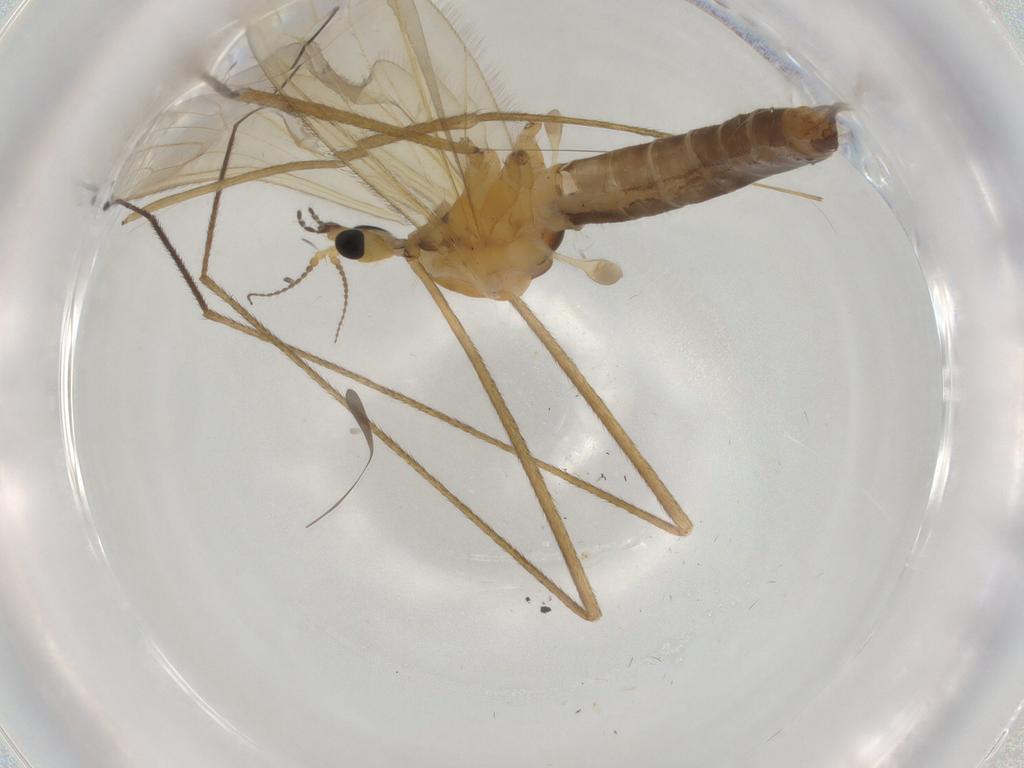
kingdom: Animalia
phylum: Arthropoda
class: Insecta
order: Diptera
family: Limoniidae
